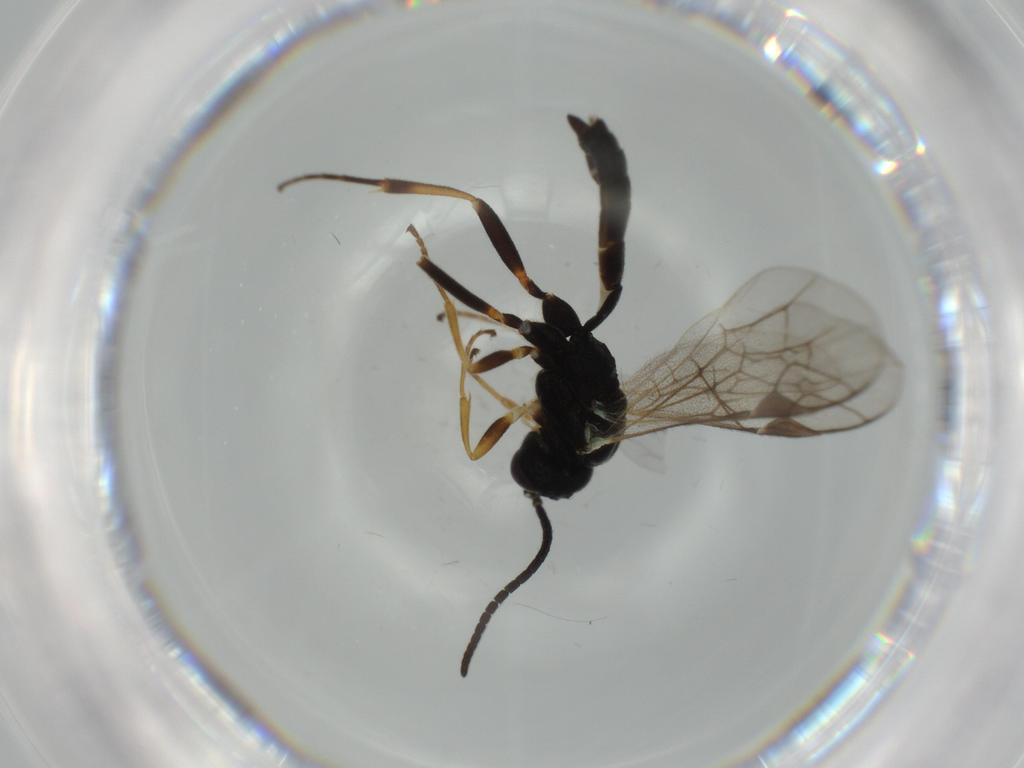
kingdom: Animalia
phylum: Arthropoda
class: Insecta
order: Hymenoptera
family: Ichneumonidae
